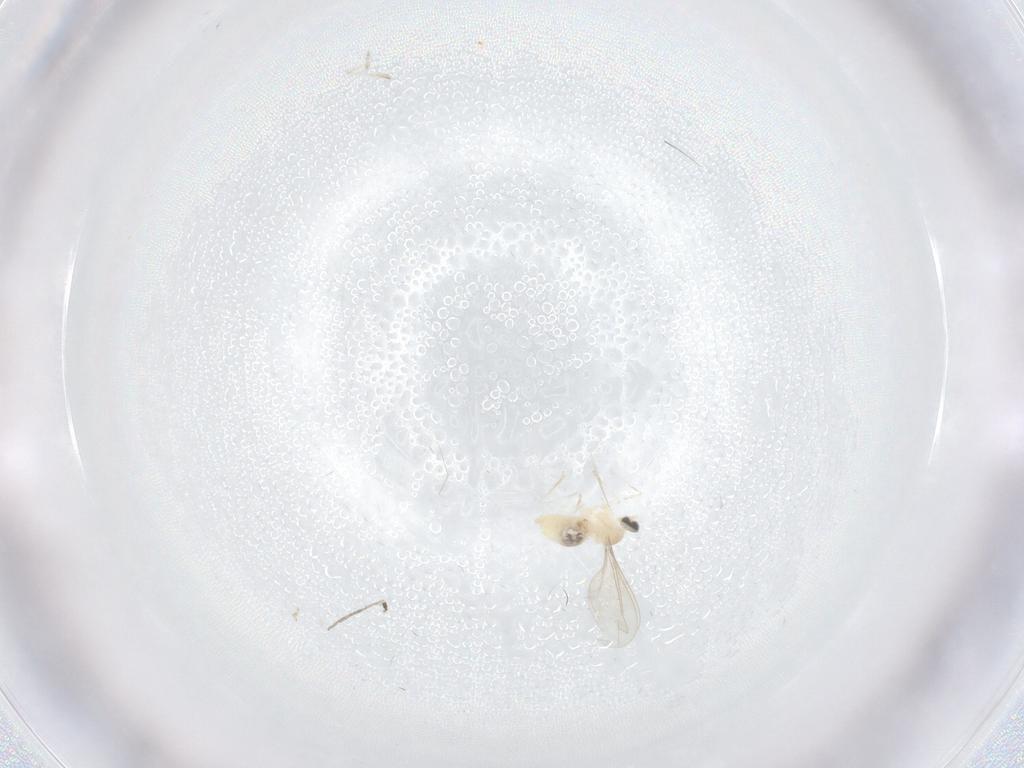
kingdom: Animalia
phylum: Arthropoda
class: Insecta
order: Diptera
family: Cecidomyiidae
